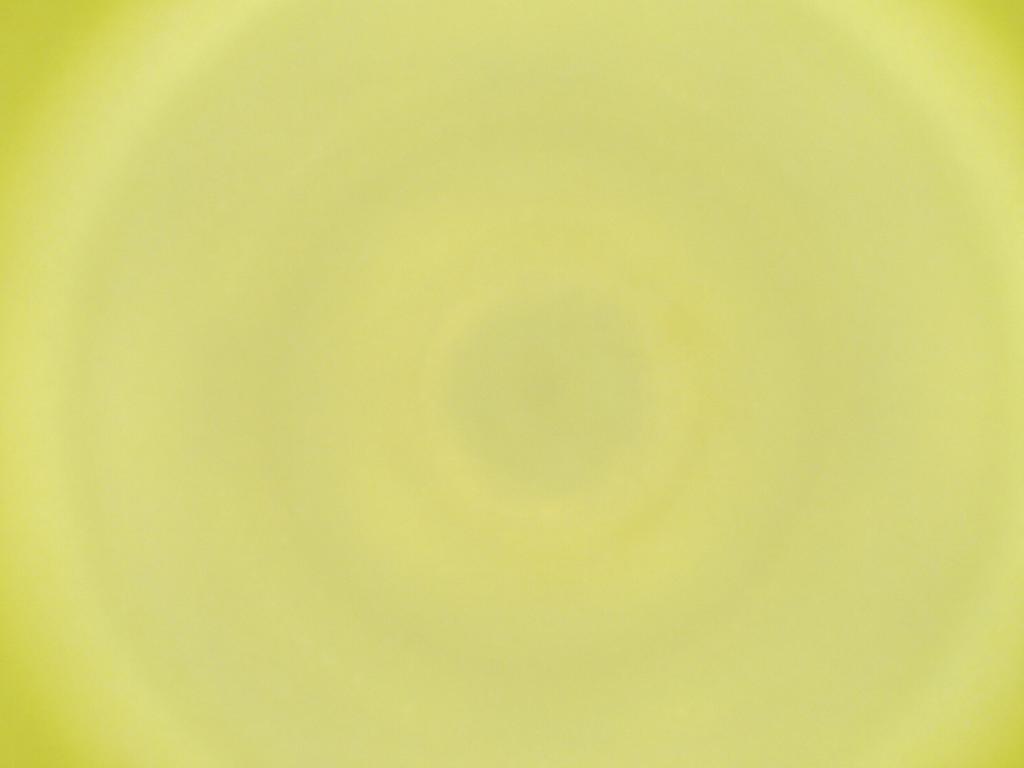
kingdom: Animalia
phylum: Arthropoda
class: Insecta
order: Diptera
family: Cecidomyiidae
